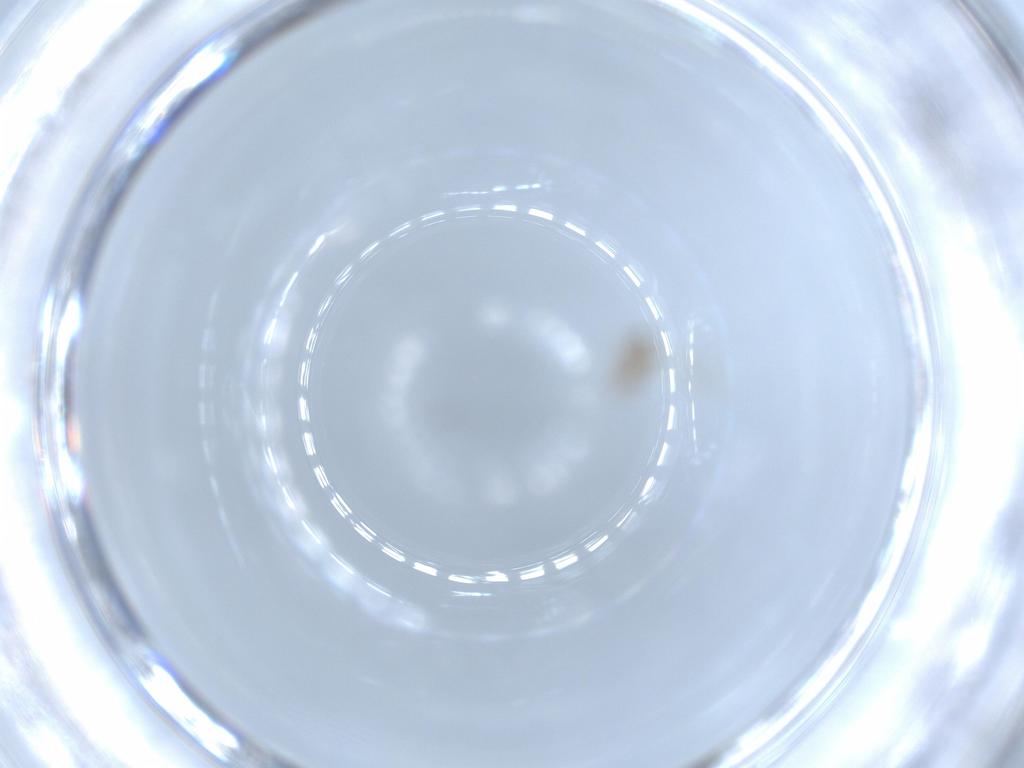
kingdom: Animalia
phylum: Arthropoda
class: Insecta
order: Diptera
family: Cecidomyiidae
